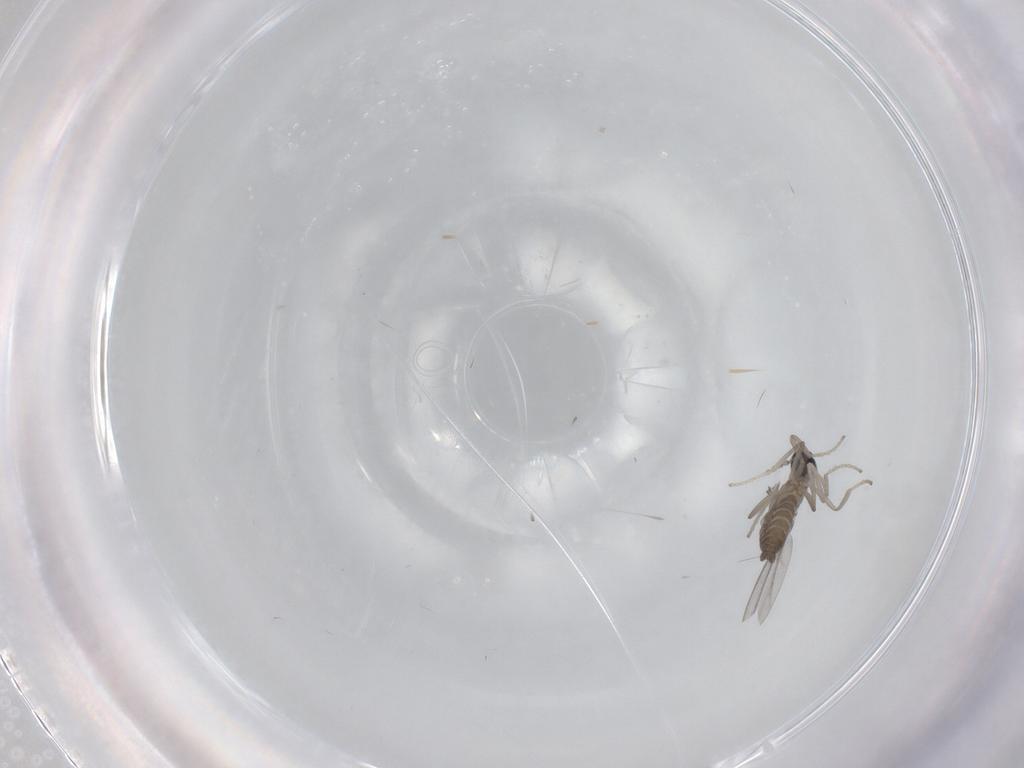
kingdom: Animalia
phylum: Arthropoda
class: Insecta
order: Diptera
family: Cecidomyiidae
